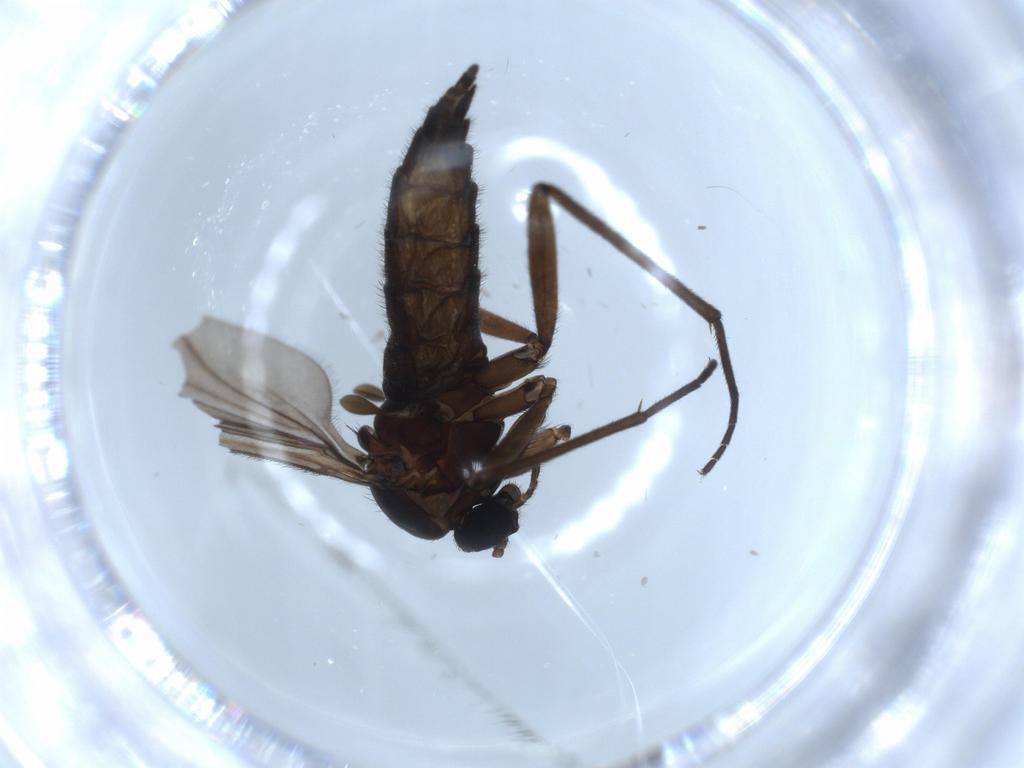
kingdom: Animalia
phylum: Arthropoda
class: Insecta
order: Diptera
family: Sciaridae
